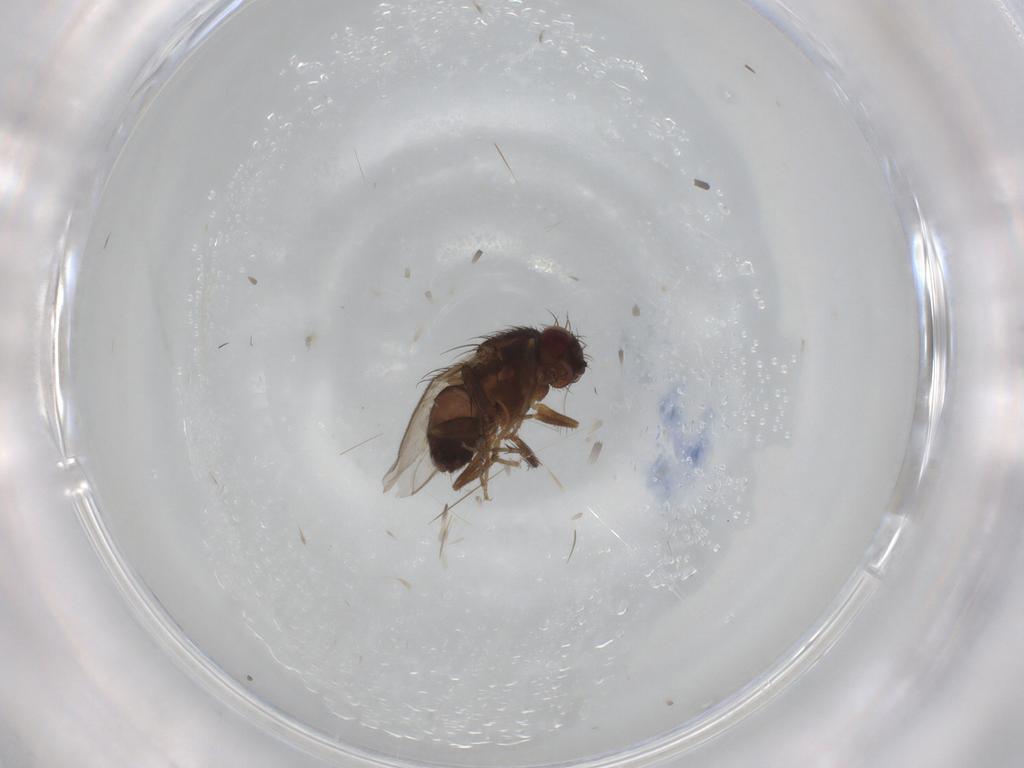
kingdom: Animalia
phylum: Arthropoda
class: Insecta
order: Diptera
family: Sphaeroceridae
